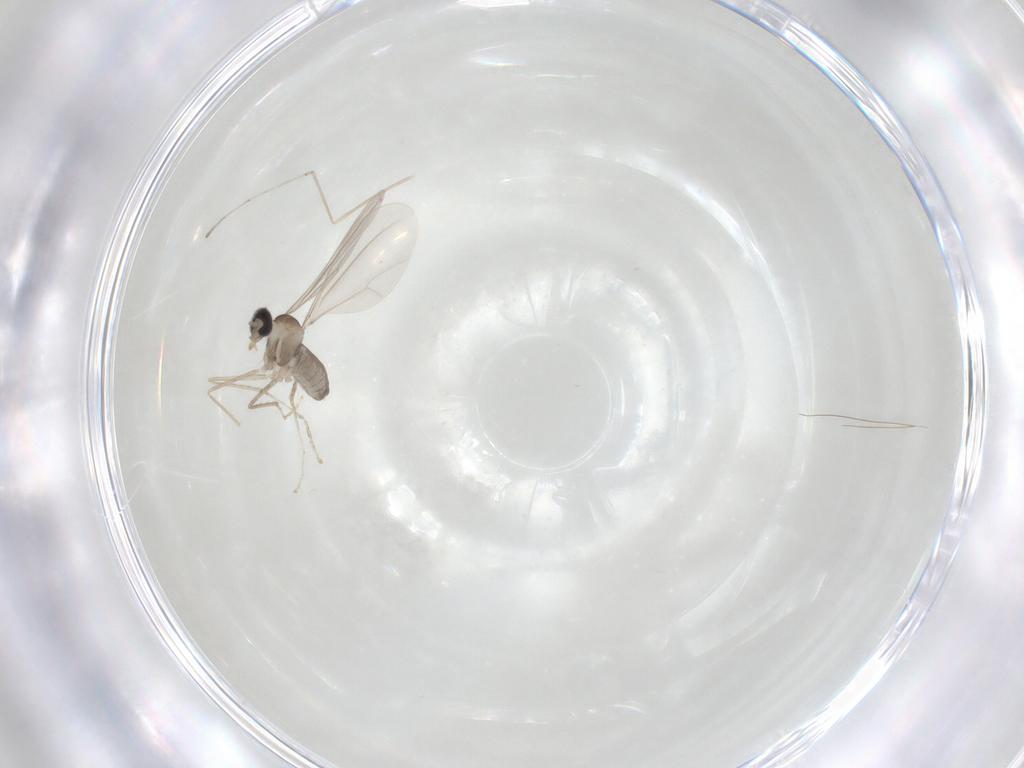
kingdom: Animalia
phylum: Arthropoda
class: Insecta
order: Diptera
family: Cecidomyiidae
